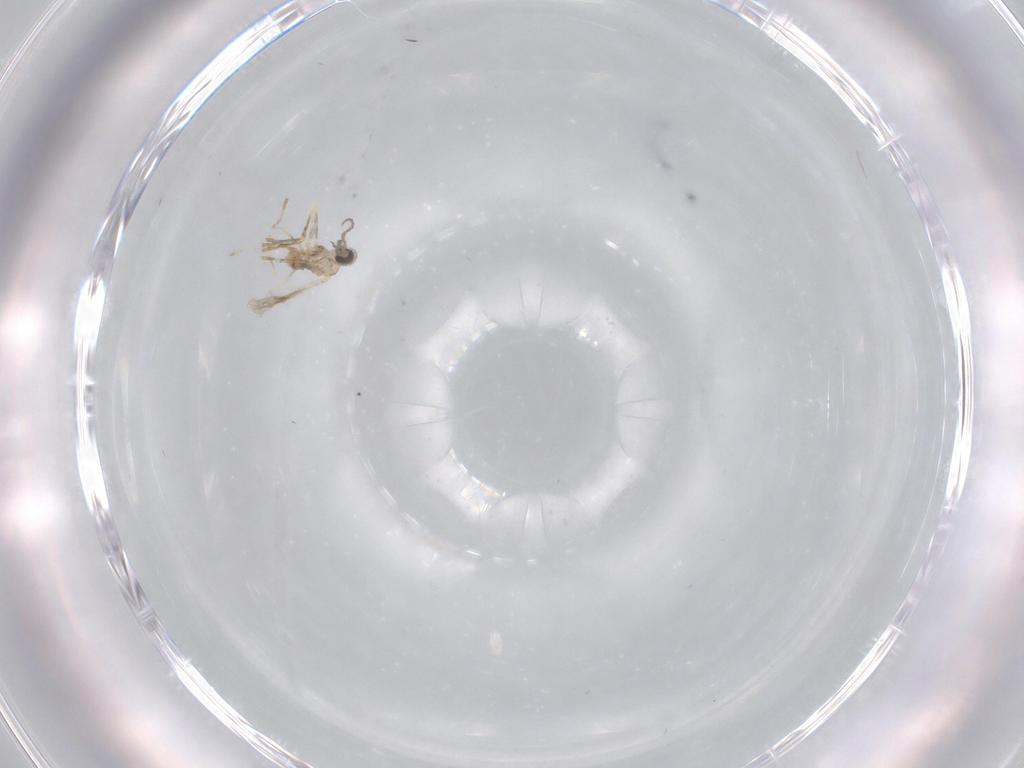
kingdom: Animalia
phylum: Arthropoda
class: Insecta
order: Diptera
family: Cecidomyiidae
